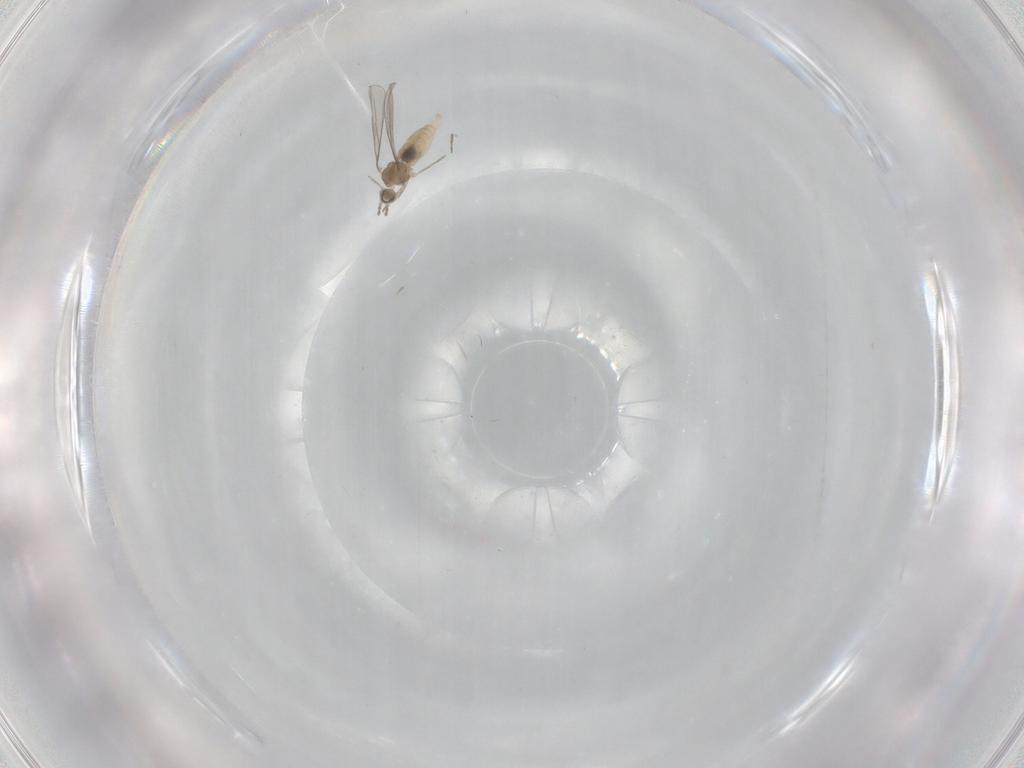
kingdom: Animalia
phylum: Arthropoda
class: Insecta
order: Diptera
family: Cecidomyiidae
